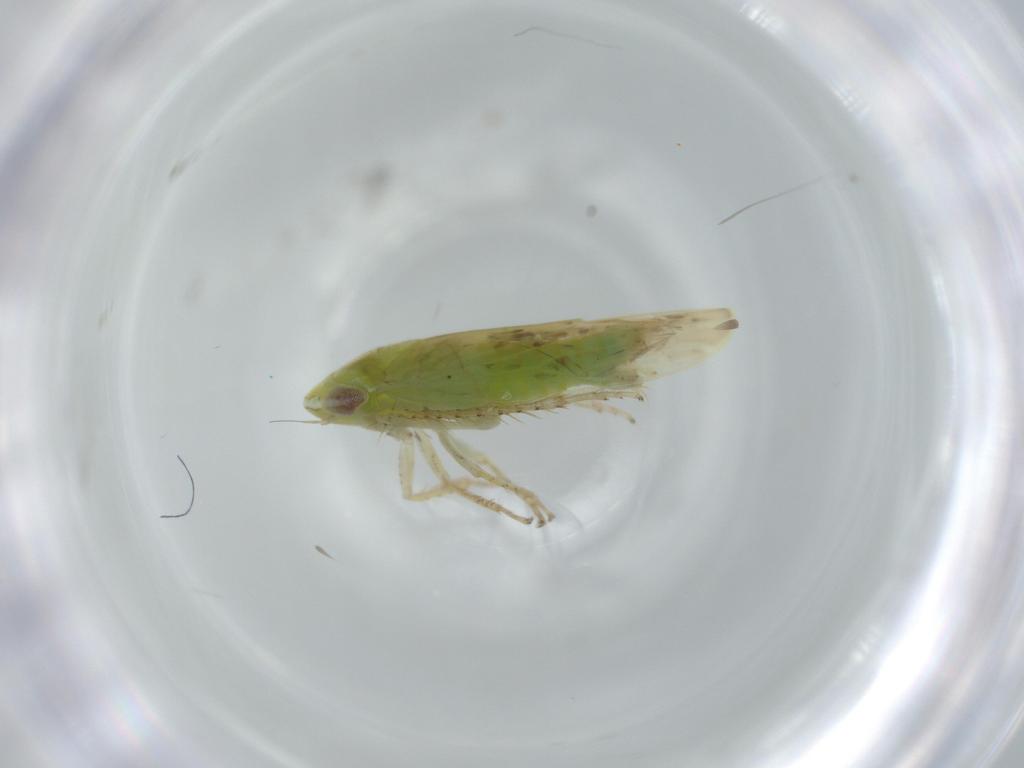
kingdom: Animalia
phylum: Arthropoda
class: Insecta
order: Hemiptera
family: Cicadellidae
